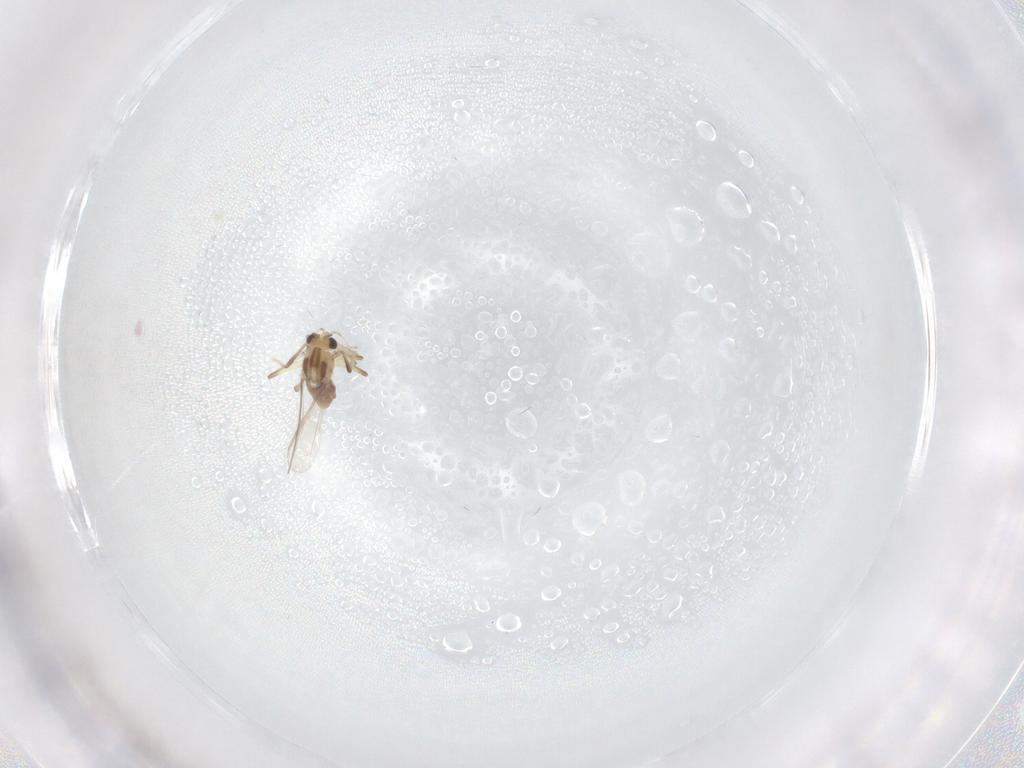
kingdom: Animalia
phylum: Arthropoda
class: Insecta
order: Diptera
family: Chironomidae
